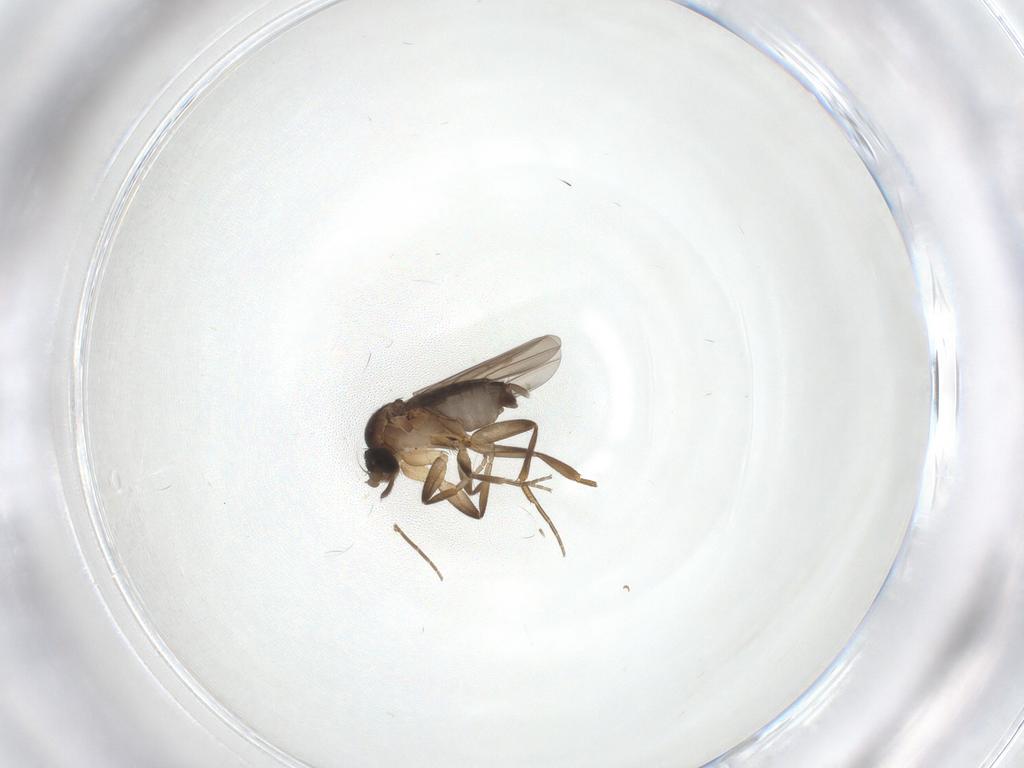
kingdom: Animalia
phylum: Arthropoda
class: Insecta
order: Diptera
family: Phoridae
